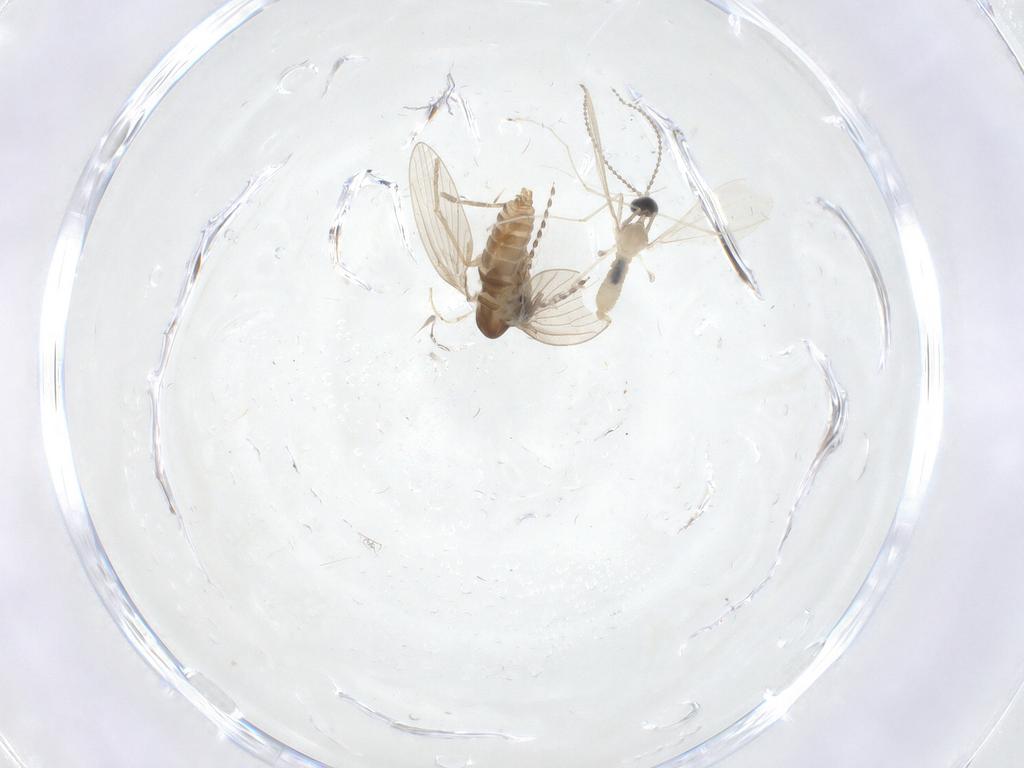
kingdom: Animalia
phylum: Arthropoda
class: Insecta
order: Diptera
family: Cecidomyiidae
